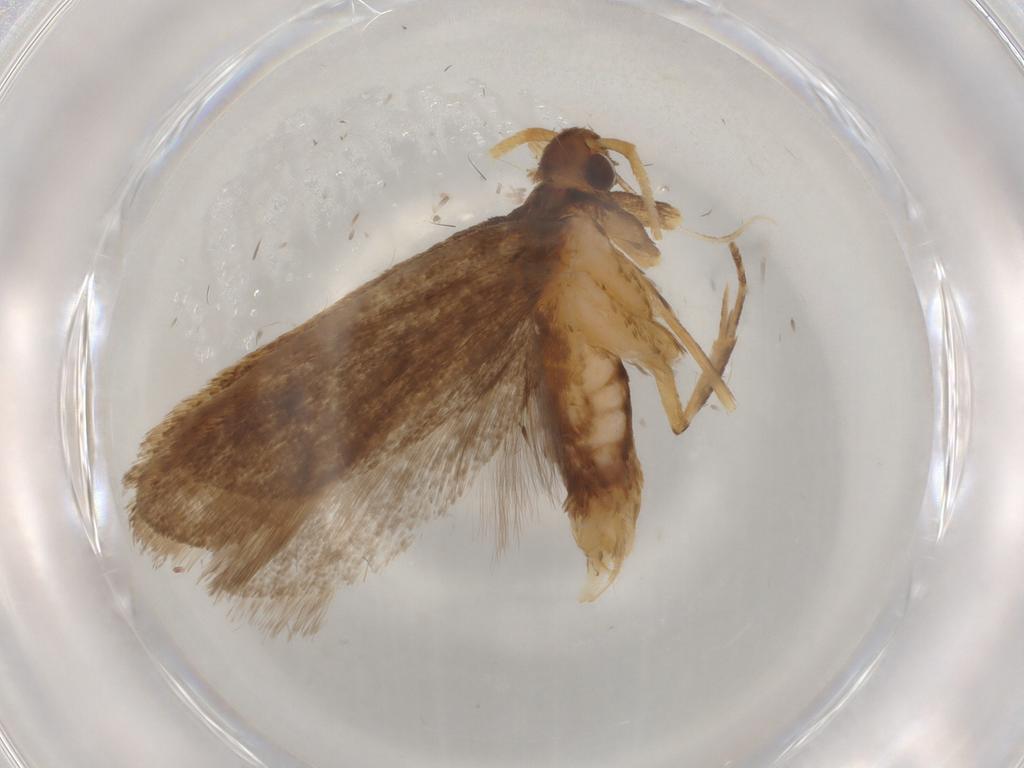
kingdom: Animalia
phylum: Arthropoda
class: Insecta
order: Lepidoptera
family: Lecithoceridae
